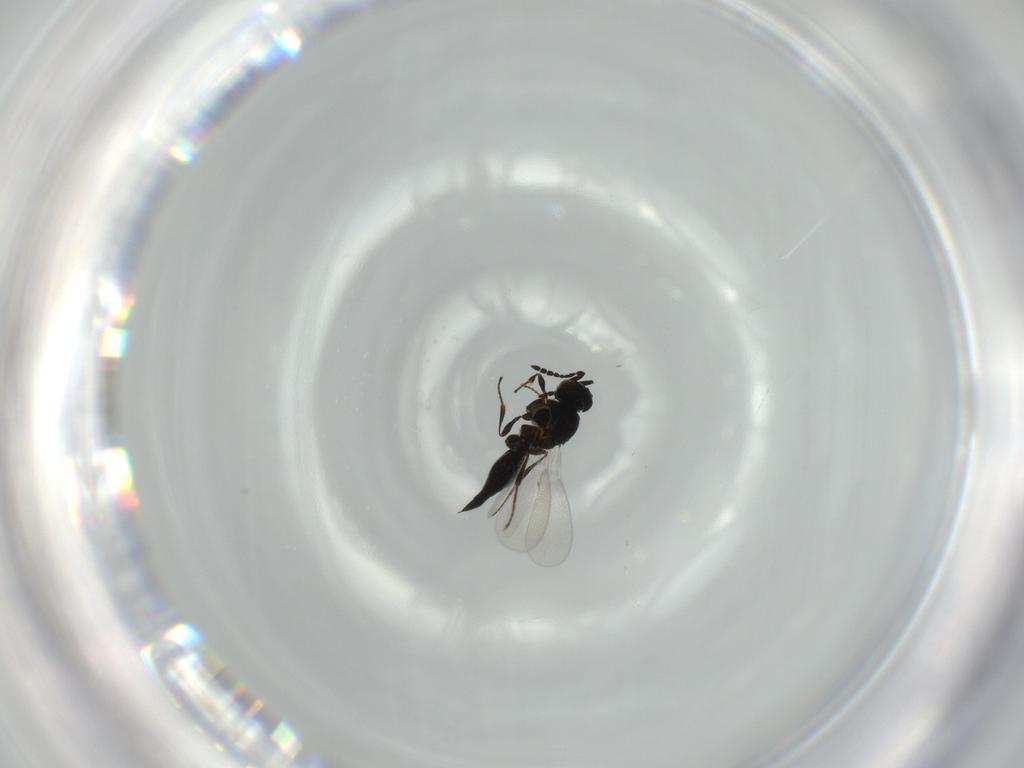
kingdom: Animalia
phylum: Arthropoda
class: Insecta
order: Diptera
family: Mythicomyiidae
